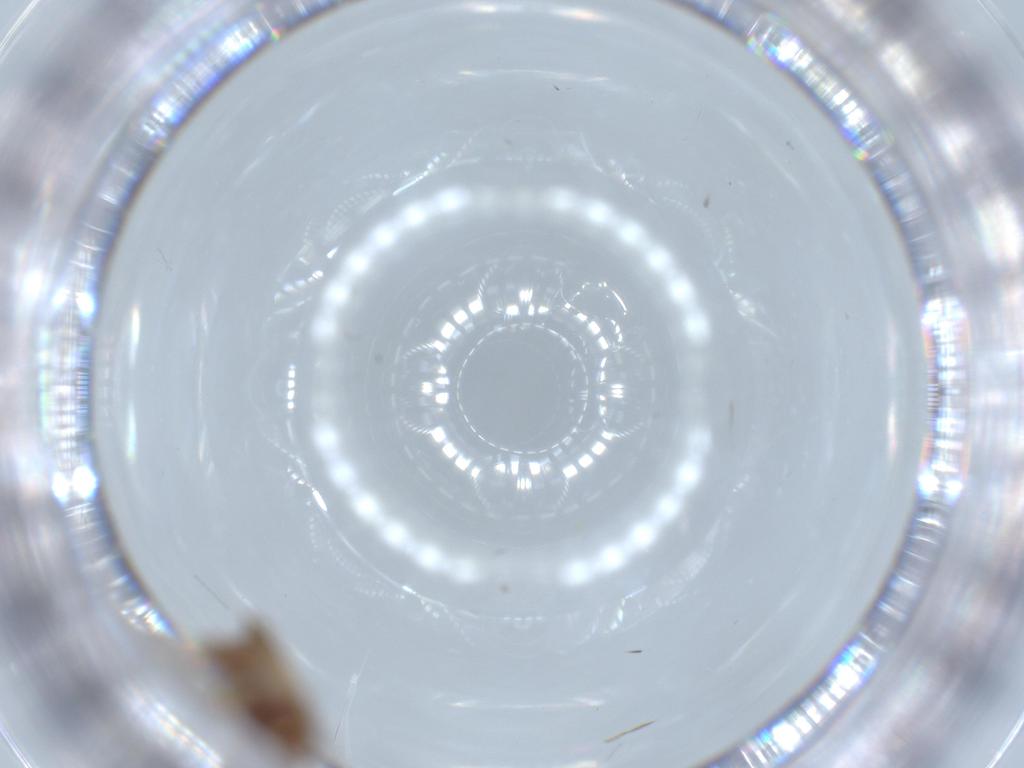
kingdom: Animalia
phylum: Arthropoda
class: Insecta
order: Diptera
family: Cecidomyiidae
